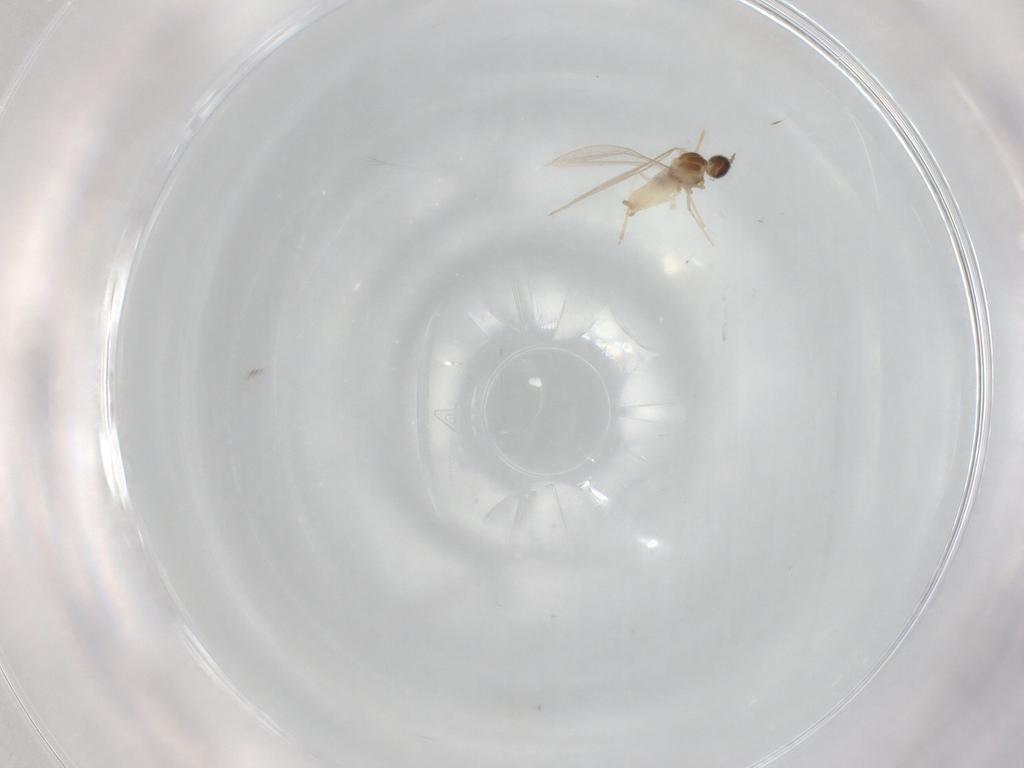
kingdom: Animalia
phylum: Arthropoda
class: Insecta
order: Diptera
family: Cecidomyiidae
